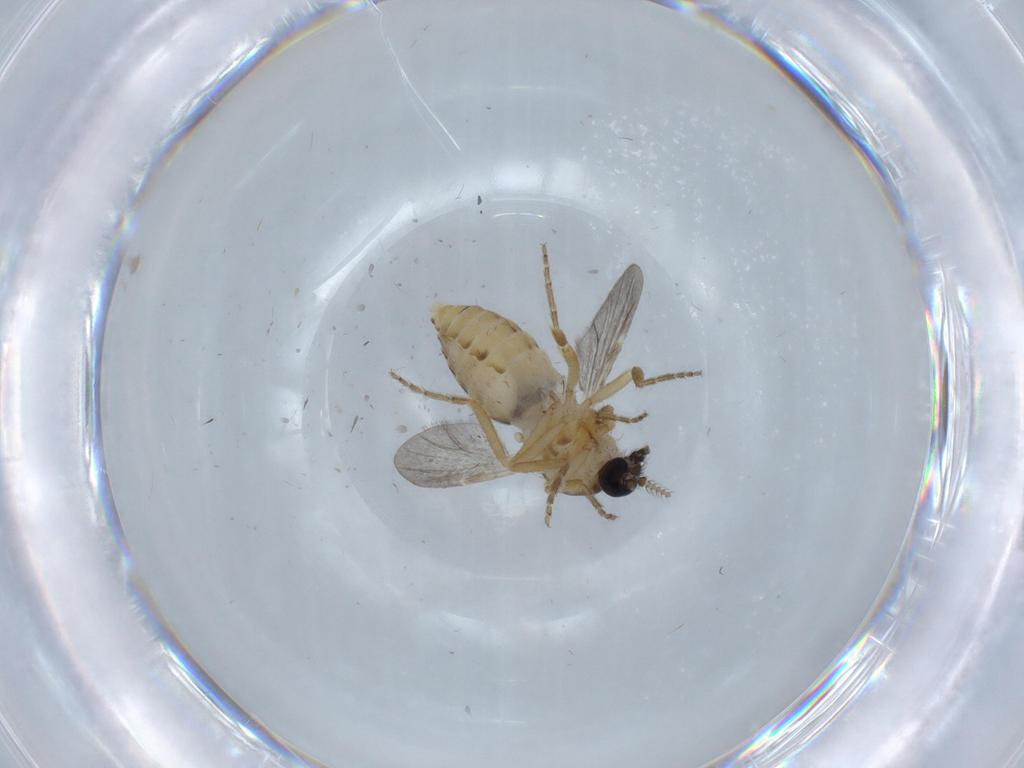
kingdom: Animalia
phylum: Arthropoda
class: Insecta
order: Diptera
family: Ceratopogonidae
